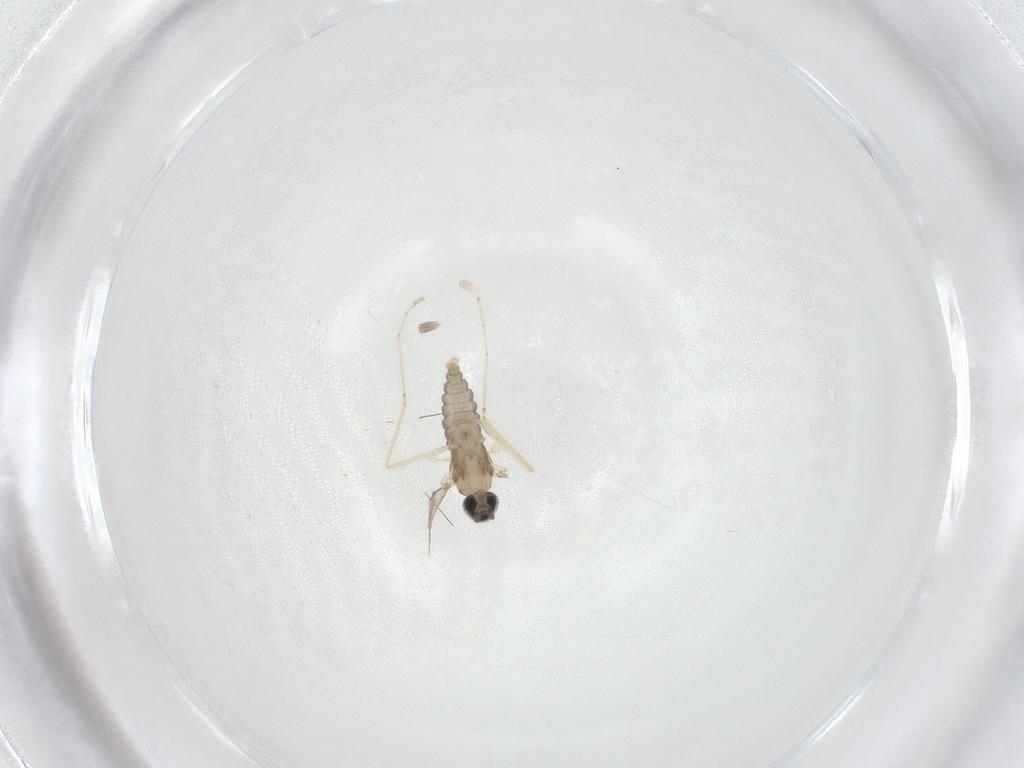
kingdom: Animalia
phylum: Arthropoda
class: Insecta
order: Diptera
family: Cecidomyiidae
